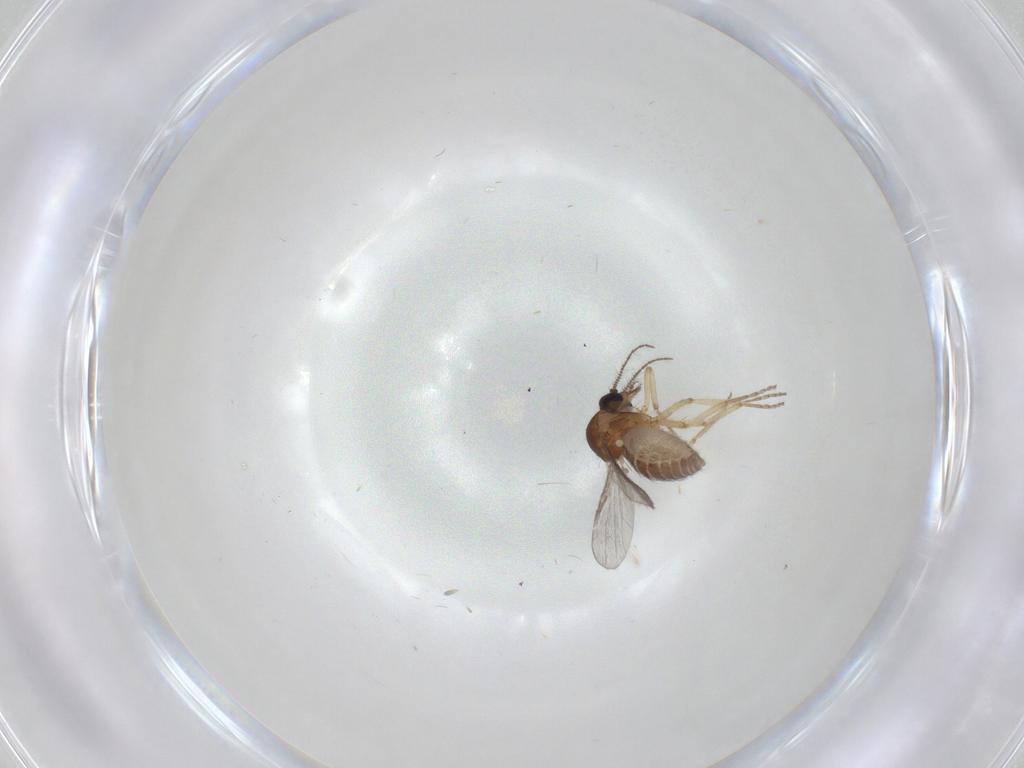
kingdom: Animalia
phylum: Arthropoda
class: Insecta
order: Diptera
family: Ceratopogonidae
